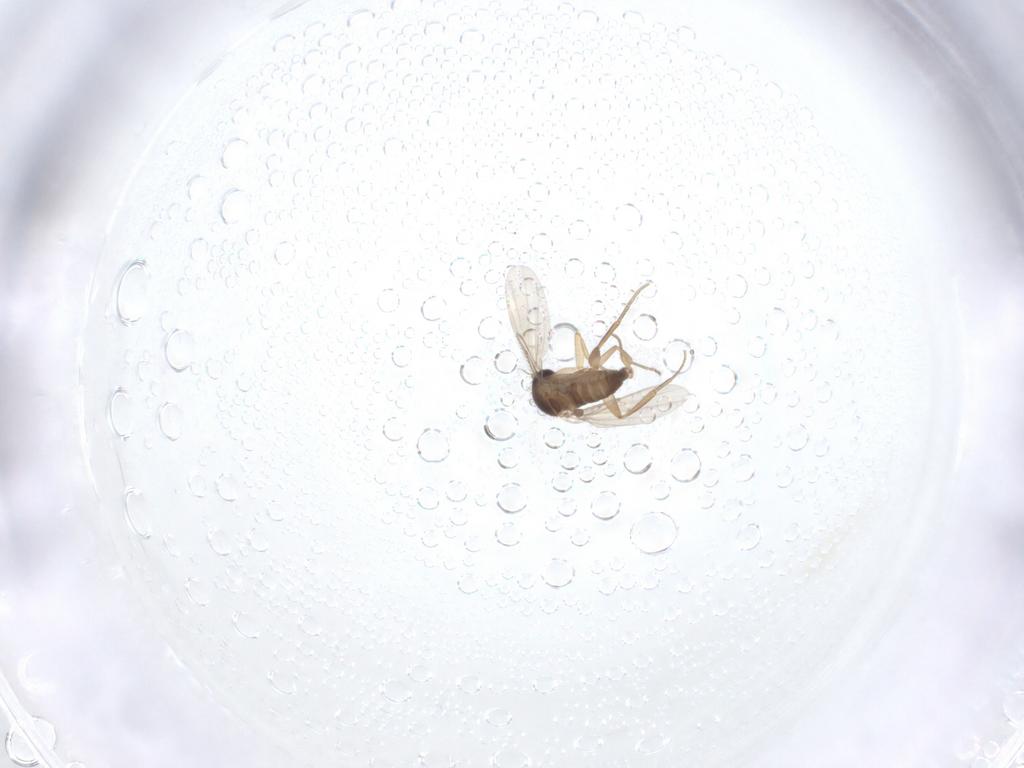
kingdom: Animalia
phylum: Arthropoda
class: Insecta
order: Diptera
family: Phoridae
